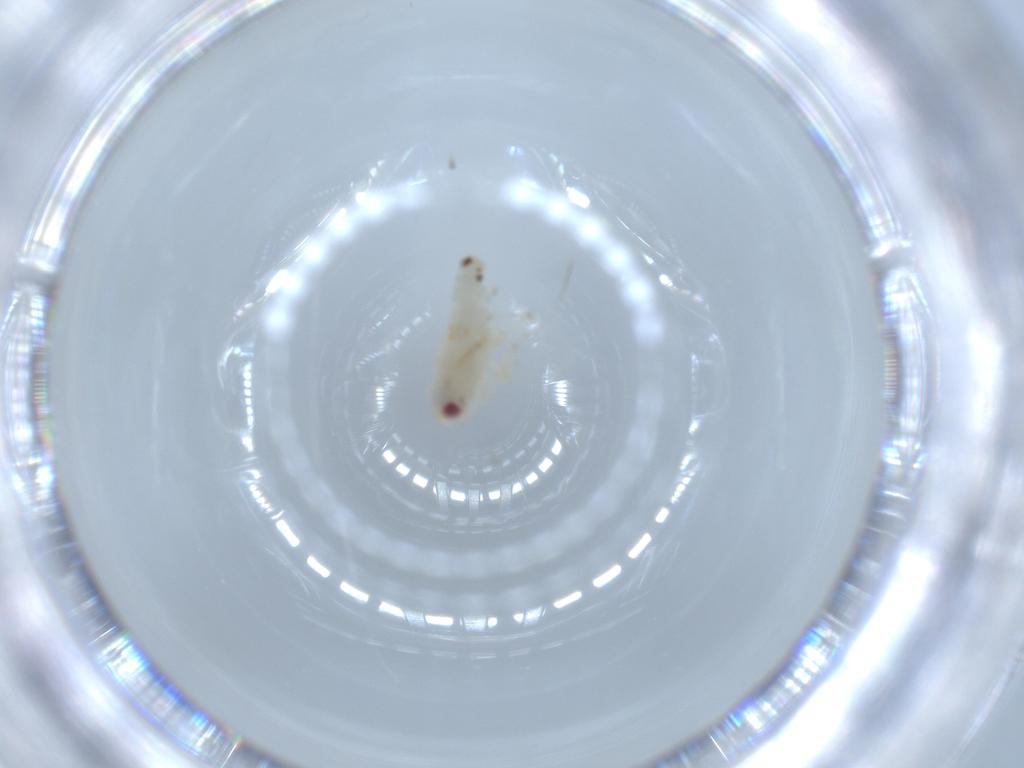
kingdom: Animalia
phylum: Arthropoda
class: Insecta
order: Hemiptera
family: Nogodinidae
